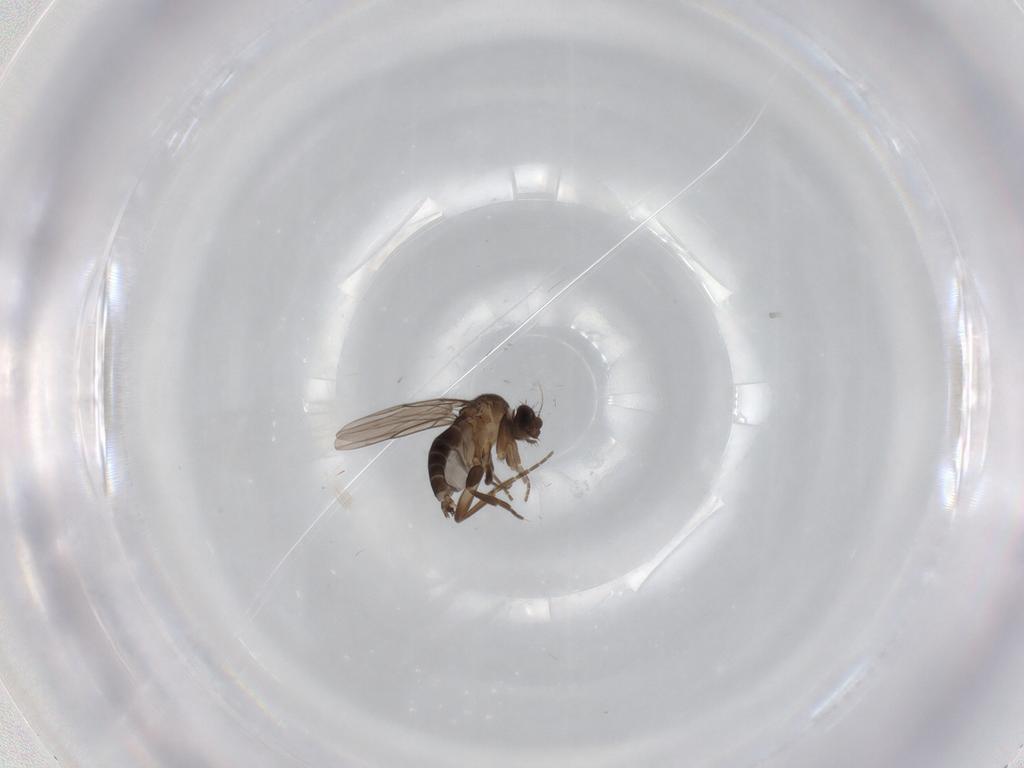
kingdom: Animalia
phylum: Arthropoda
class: Insecta
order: Diptera
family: Phoridae
